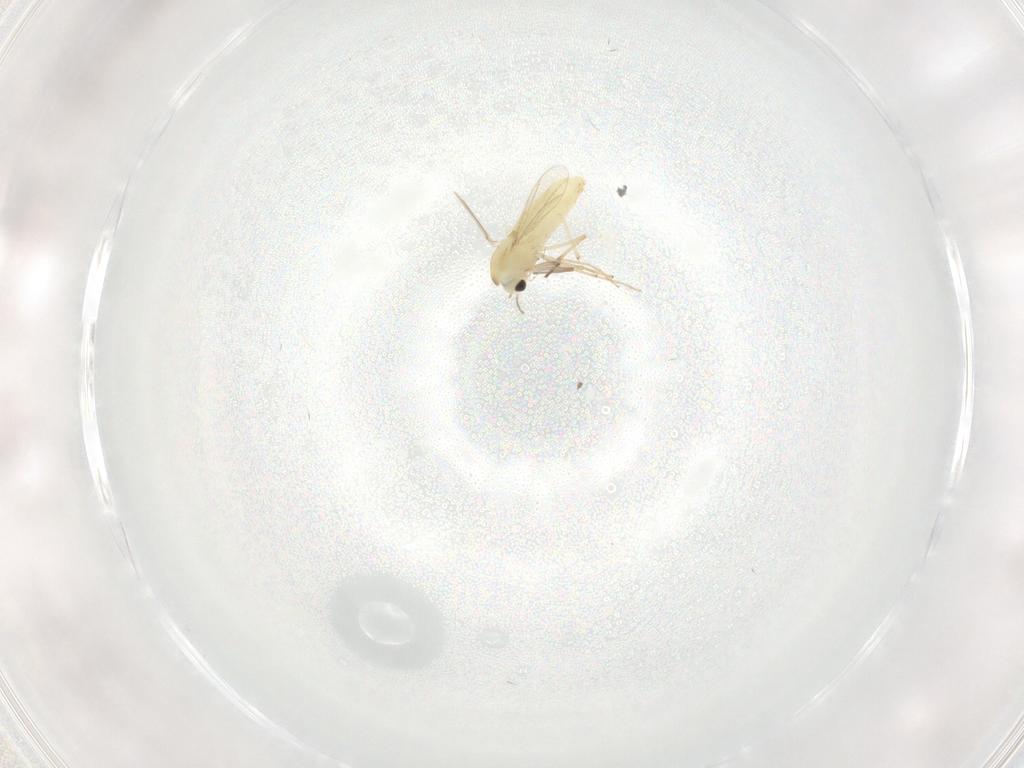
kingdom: Animalia
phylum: Arthropoda
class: Insecta
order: Diptera
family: Chironomidae
